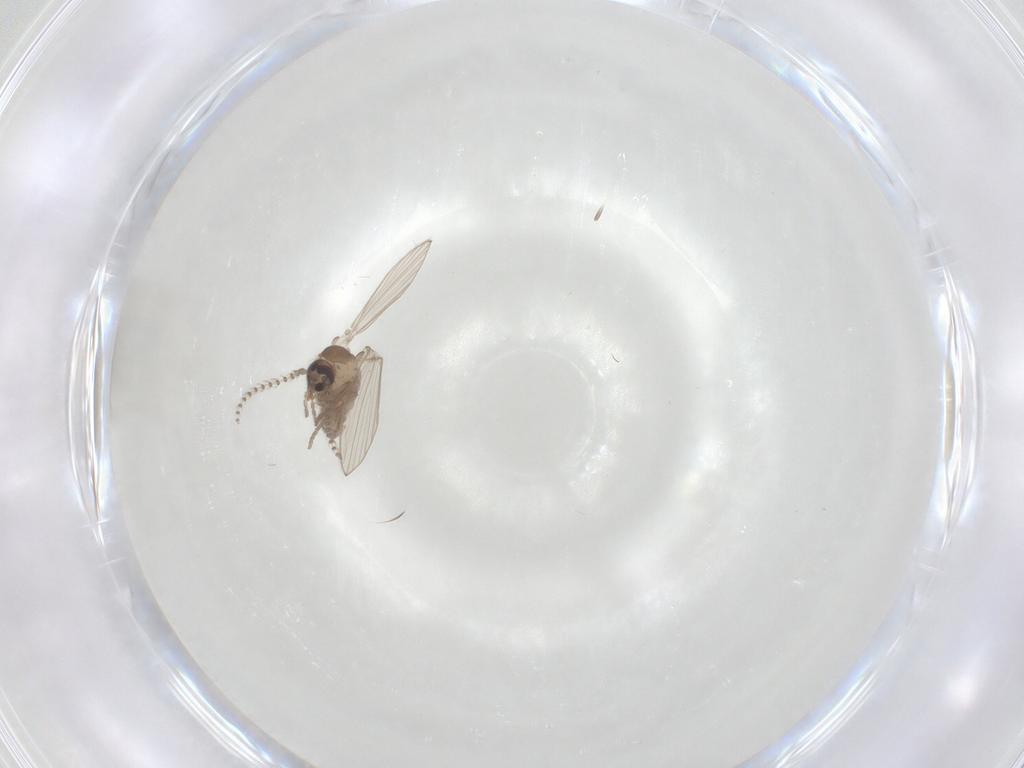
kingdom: Animalia
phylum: Arthropoda
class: Insecta
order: Diptera
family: Psychodidae
